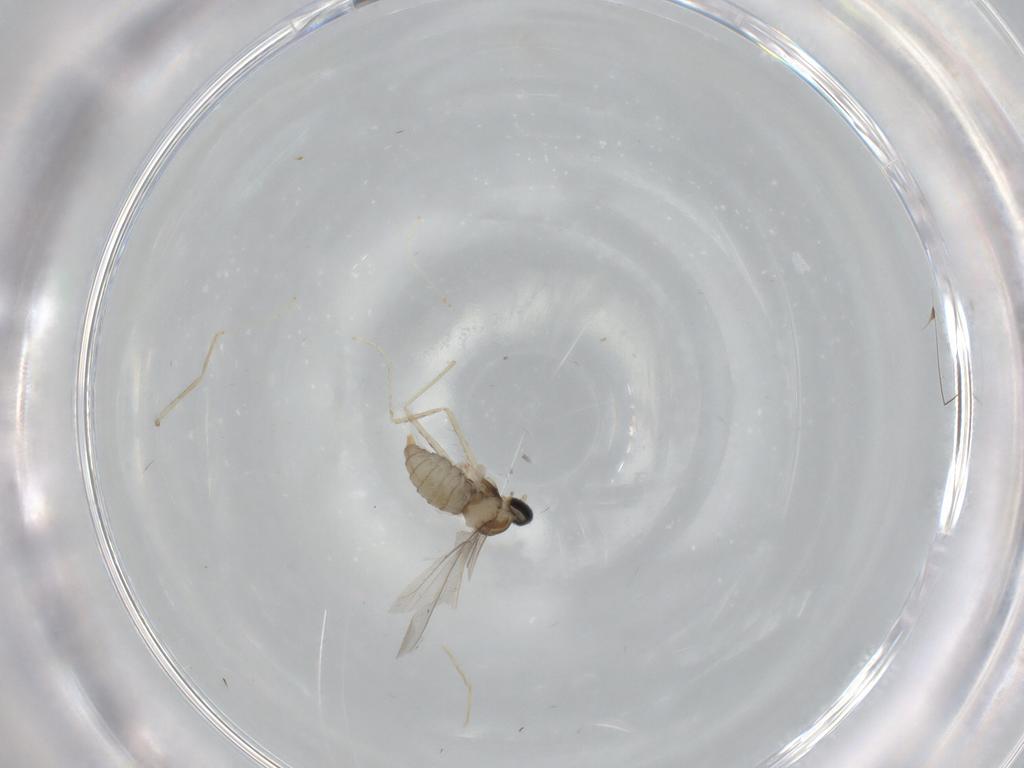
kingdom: Animalia
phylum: Arthropoda
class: Insecta
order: Diptera
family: Cecidomyiidae
